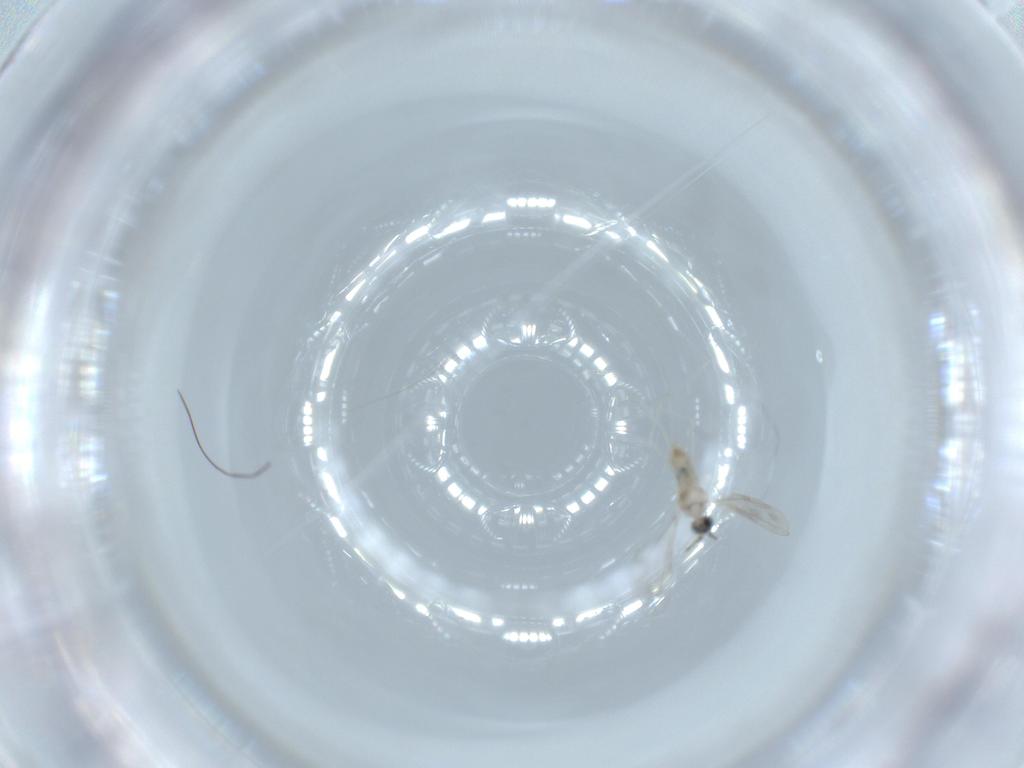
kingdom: Animalia
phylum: Arthropoda
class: Insecta
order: Diptera
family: Cecidomyiidae
